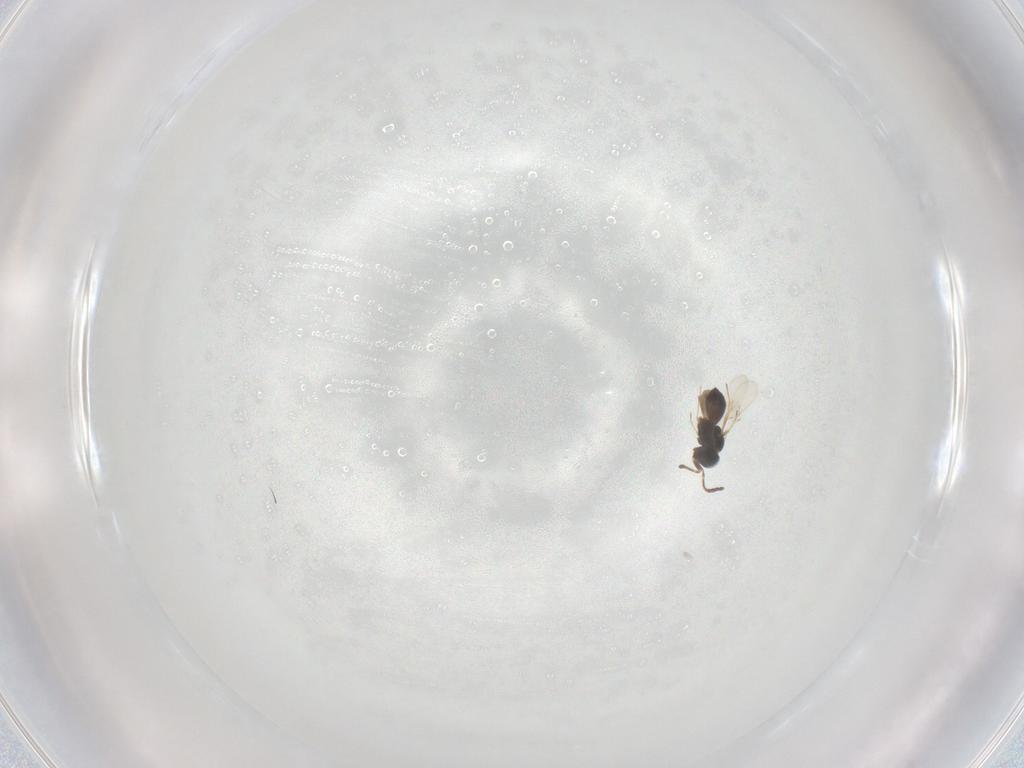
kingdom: Animalia
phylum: Arthropoda
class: Insecta
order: Hymenoptera
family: Scelionidae
